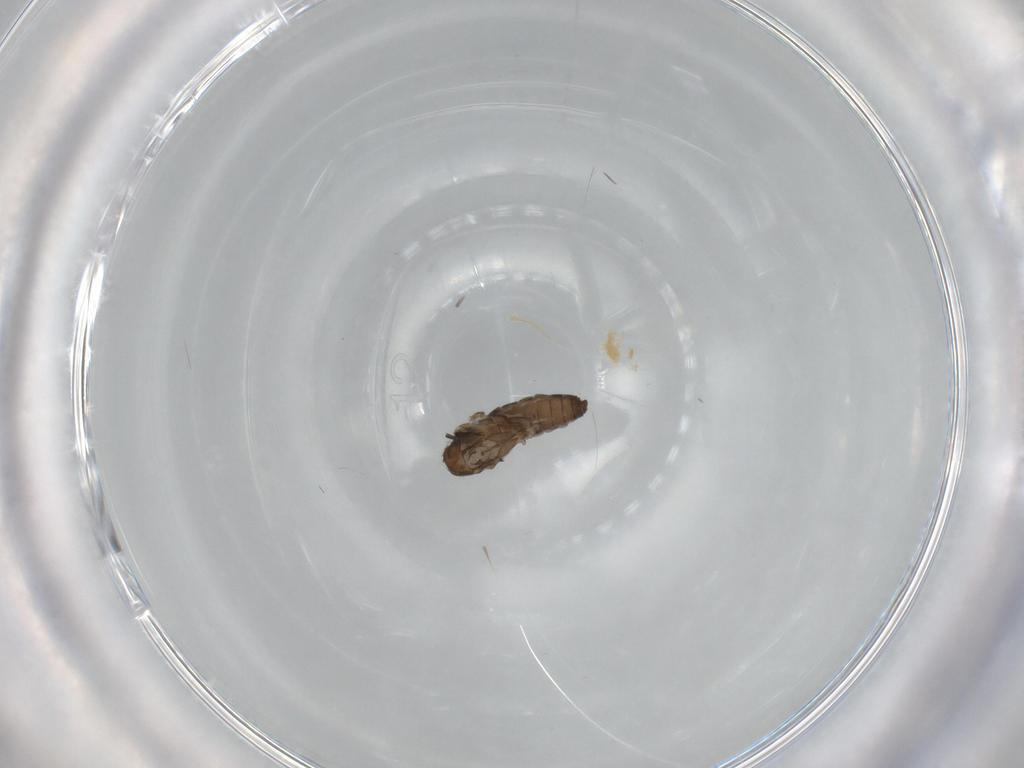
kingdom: Animalia
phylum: Arthropoda
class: Insecta
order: Diptera
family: Psychodidae
